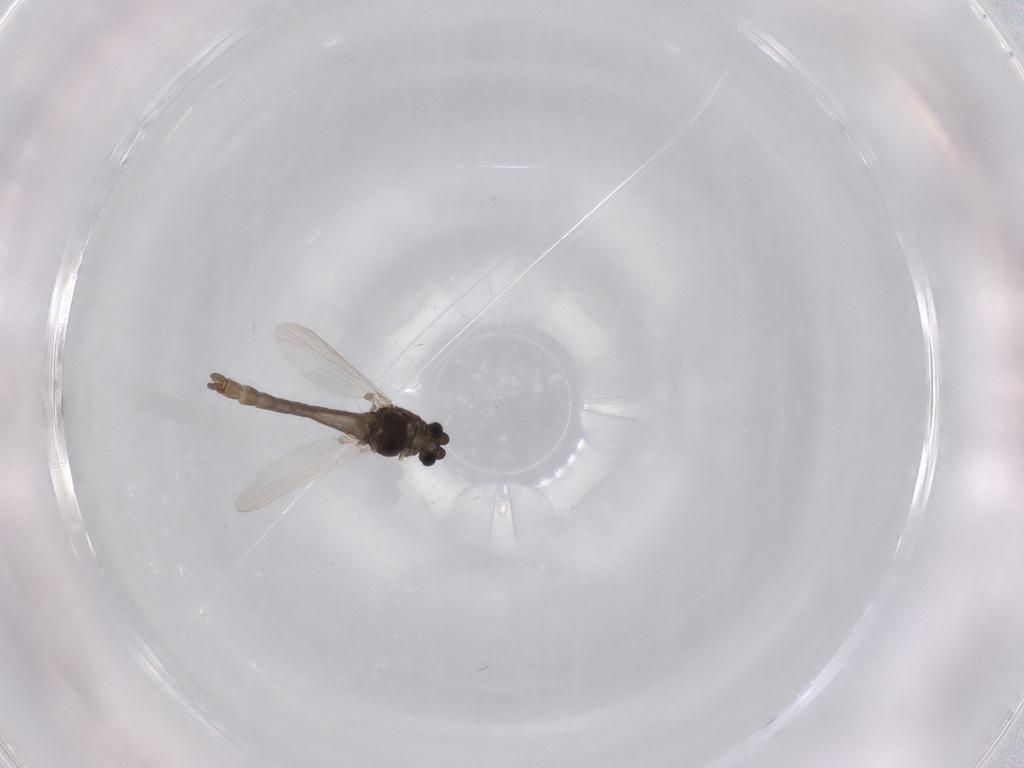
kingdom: Animalia
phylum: Arthropoda
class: Insecta
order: Diptera
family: Chironomidae
